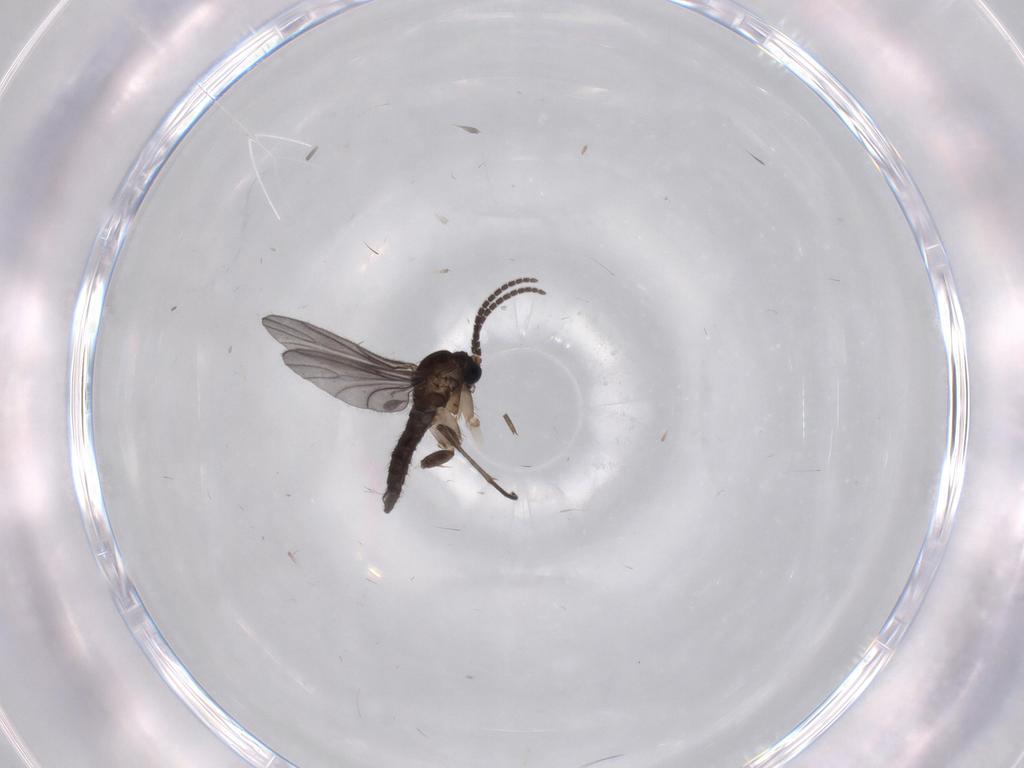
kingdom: Animalia
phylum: Arthropoda
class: Insecta
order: Diptera
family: Sciaridae
